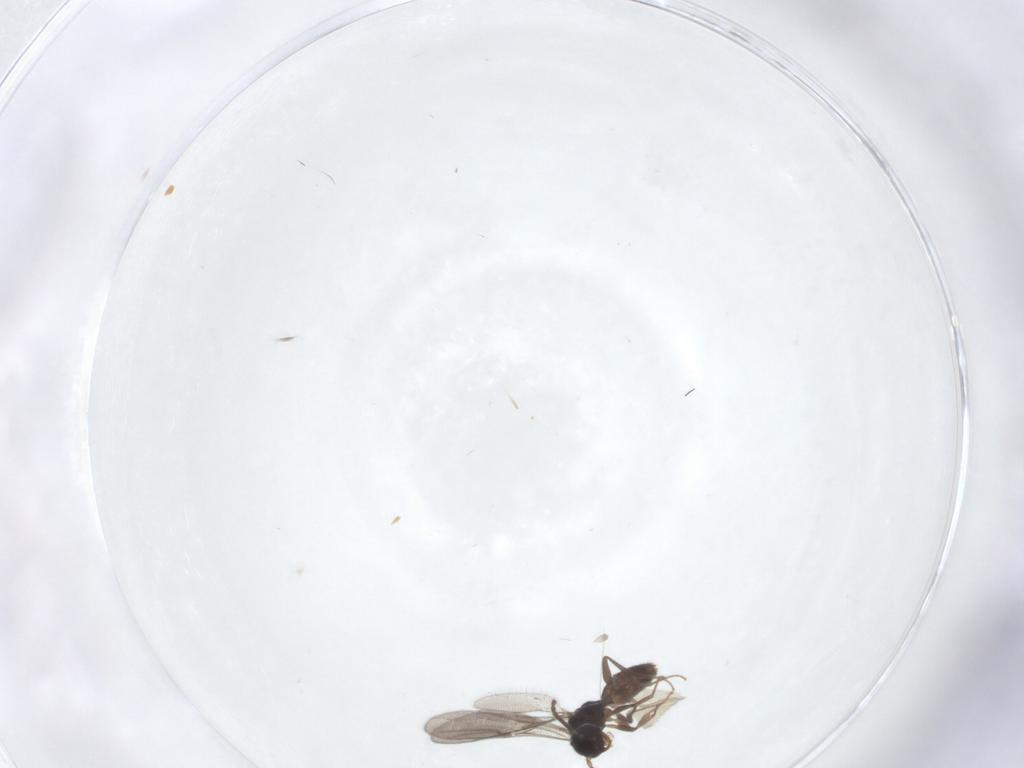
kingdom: Animalia
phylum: Arthropoda
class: Insecta
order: Hymenoptera
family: Bethylidae
